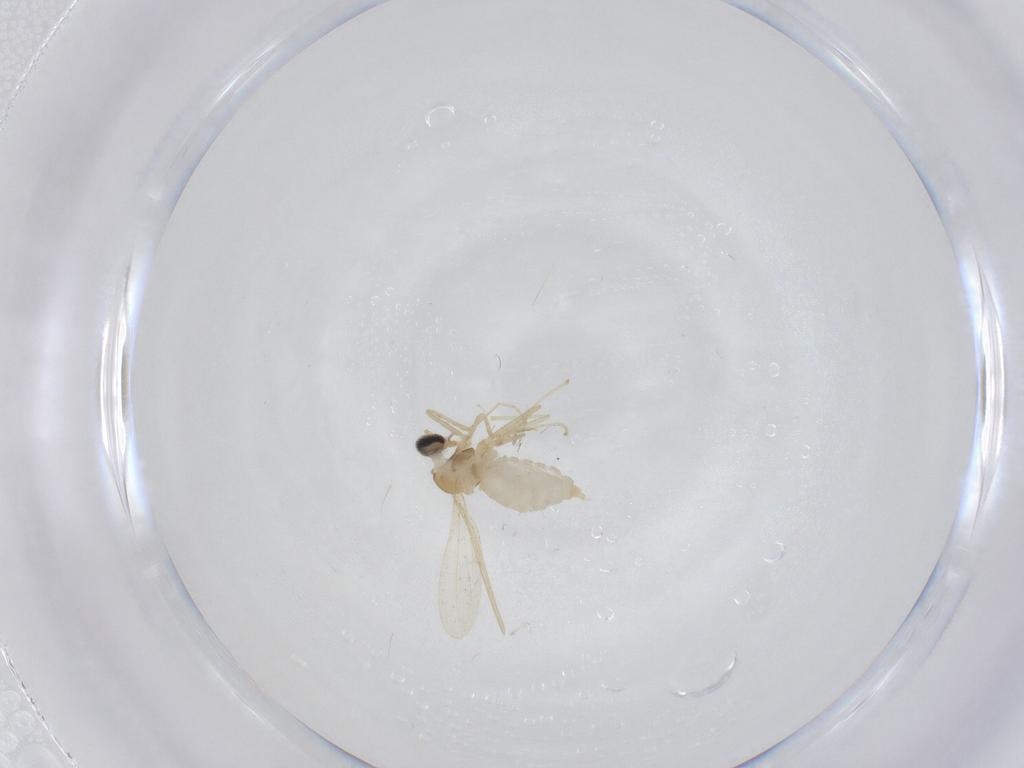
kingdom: Animalia
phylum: Arthropoda
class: Insecta
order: Diptera
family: Cecidomyiidae
